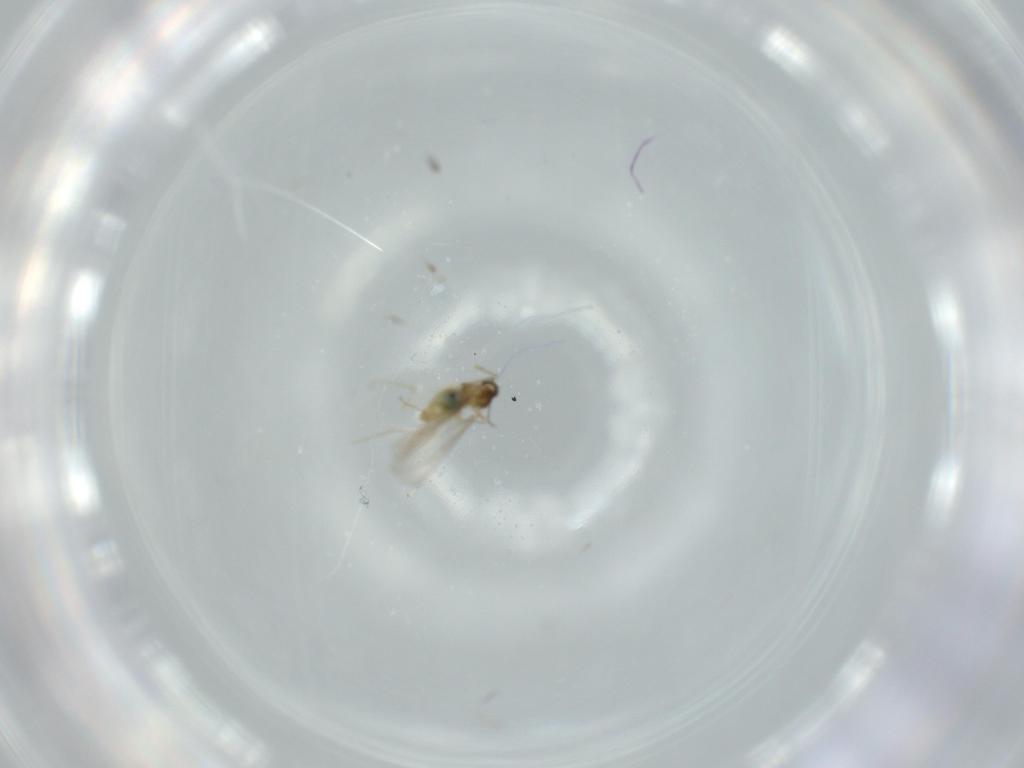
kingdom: Animalia
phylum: Arthropoda
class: Insecta
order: Diptera
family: Cecidomyiidae
